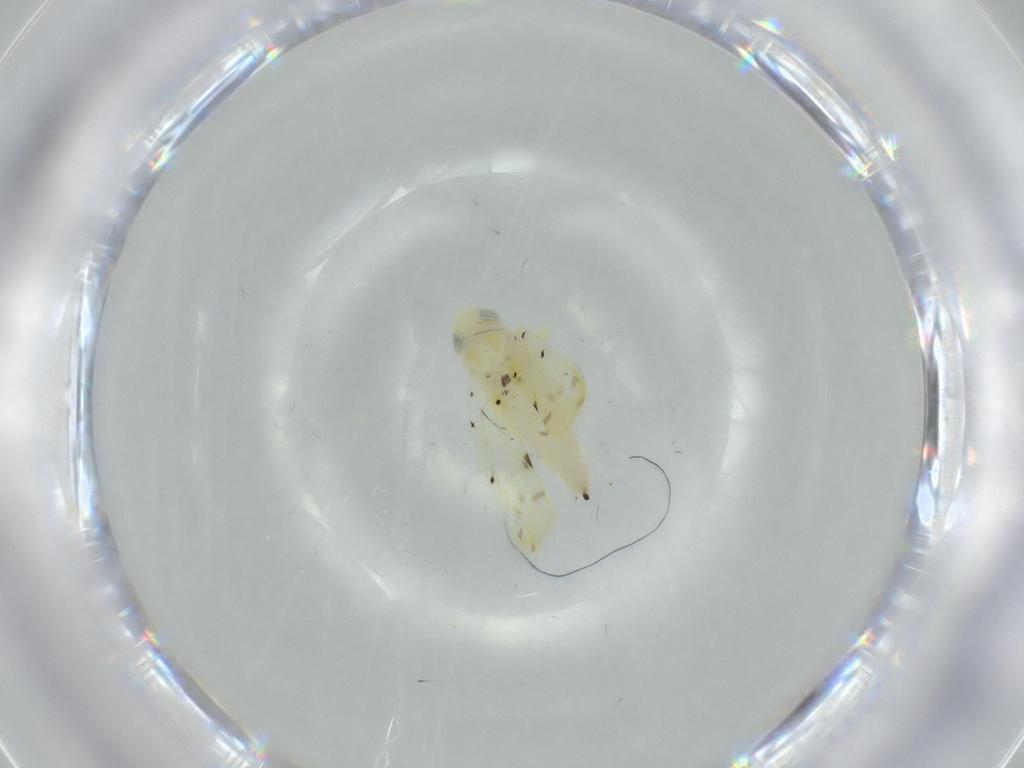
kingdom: Animalia
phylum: Arthropoda
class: Insecta
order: Hemiptera
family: Cicadellidae
